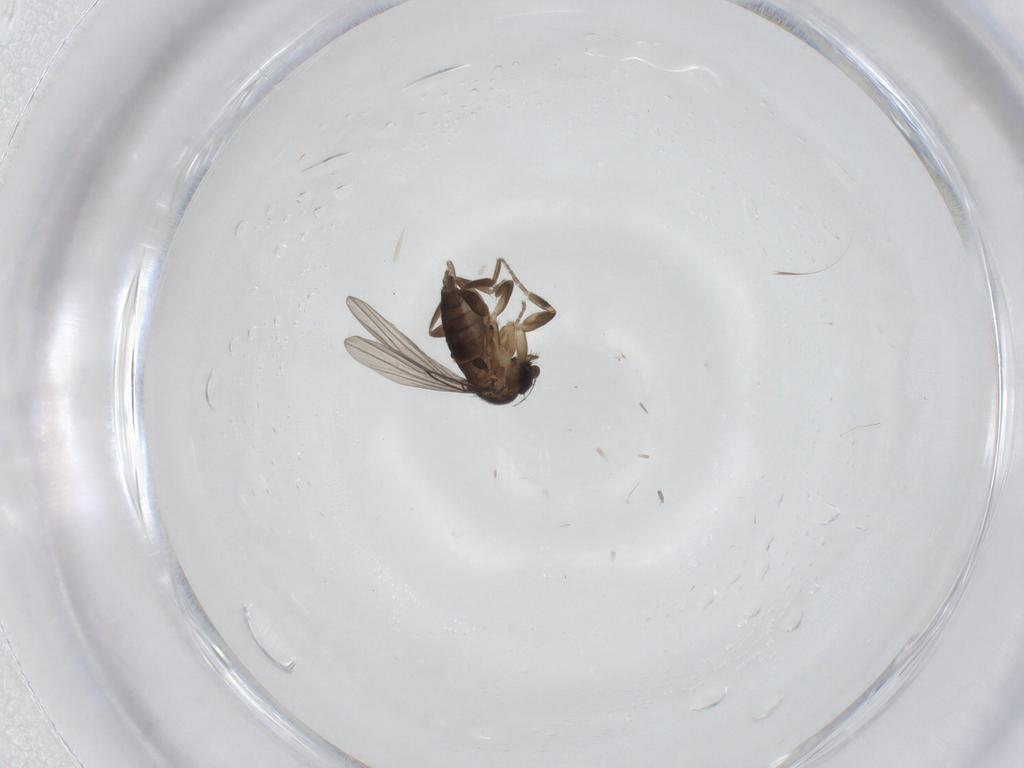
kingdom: Animalia
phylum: Arthropoda
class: Insecta
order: Diptera
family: Phoridae
